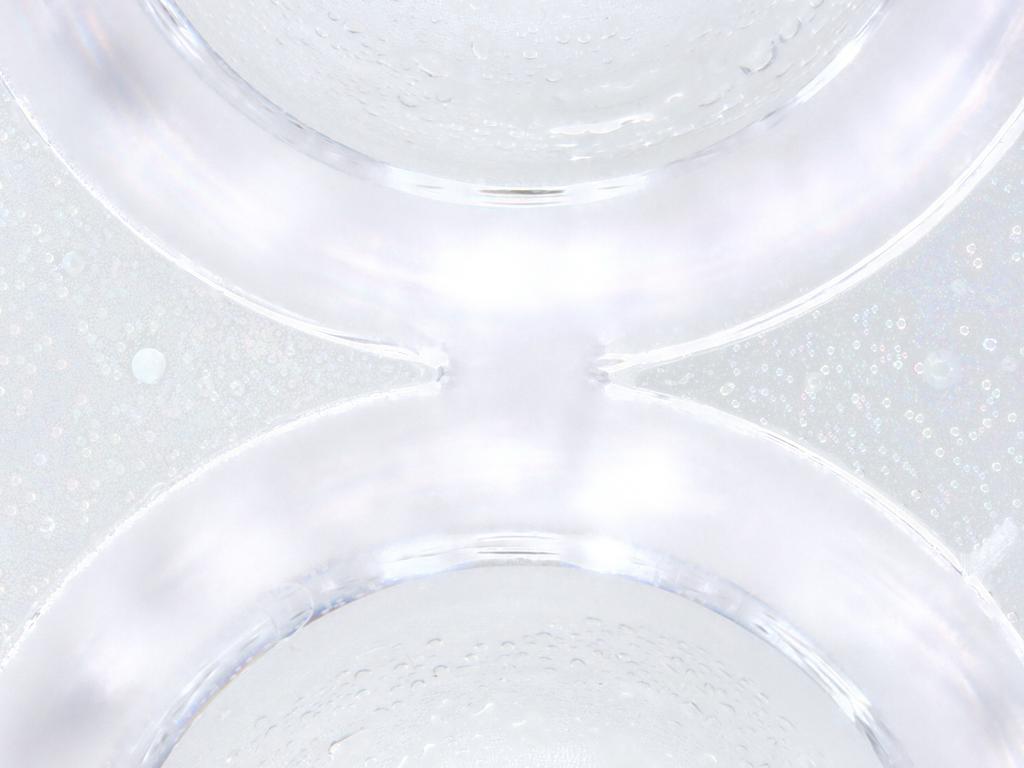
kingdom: Animalia
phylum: Arthropoda
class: Insecta
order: Diptera
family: Cecidomyiidae
